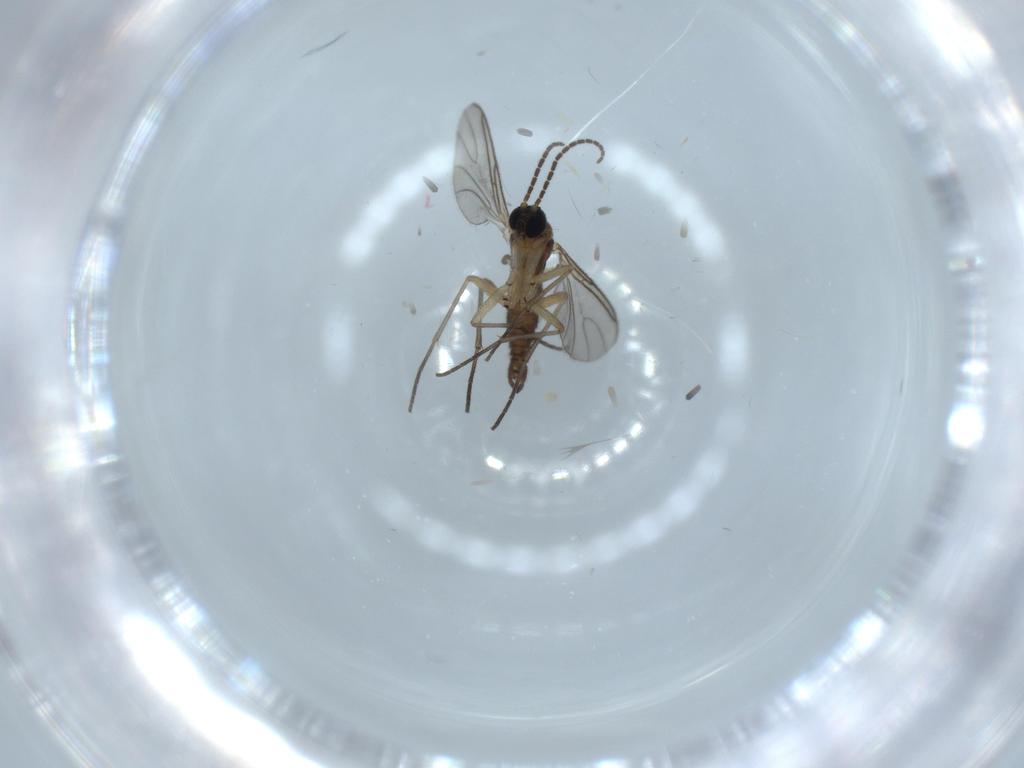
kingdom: Animalia
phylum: Arthropoda
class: Insecta
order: Diptera
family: Sciaridae
